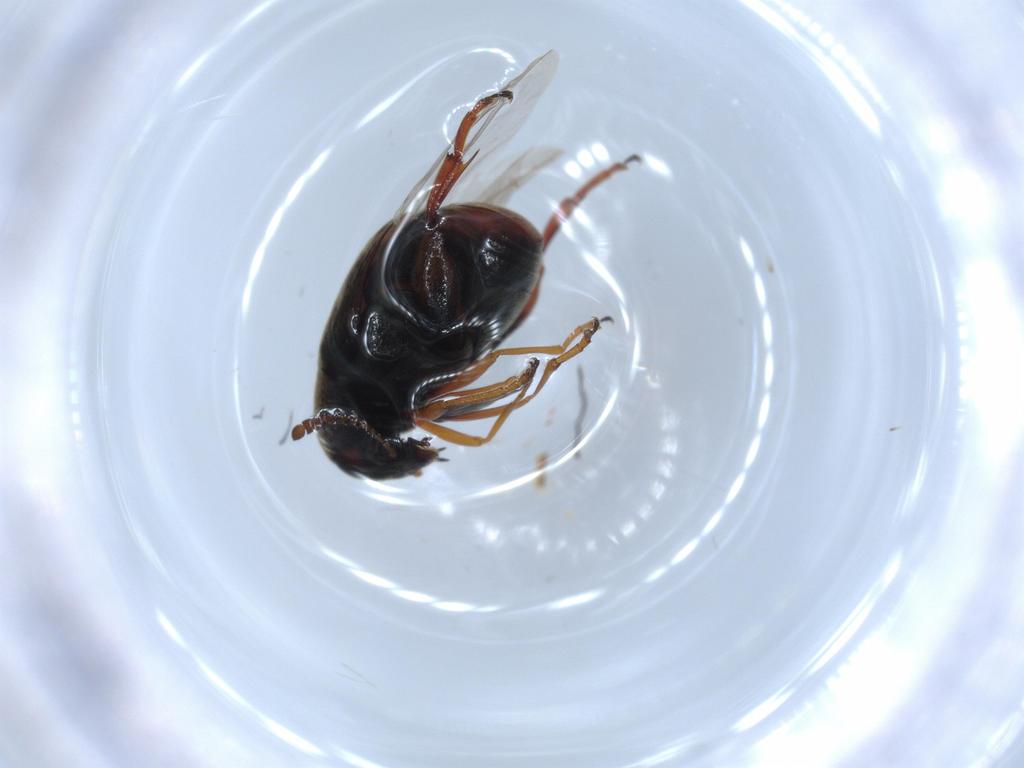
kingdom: Animalia
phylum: Arthropoda
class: Insecta
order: Coleoptera
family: Chrysomelidae
